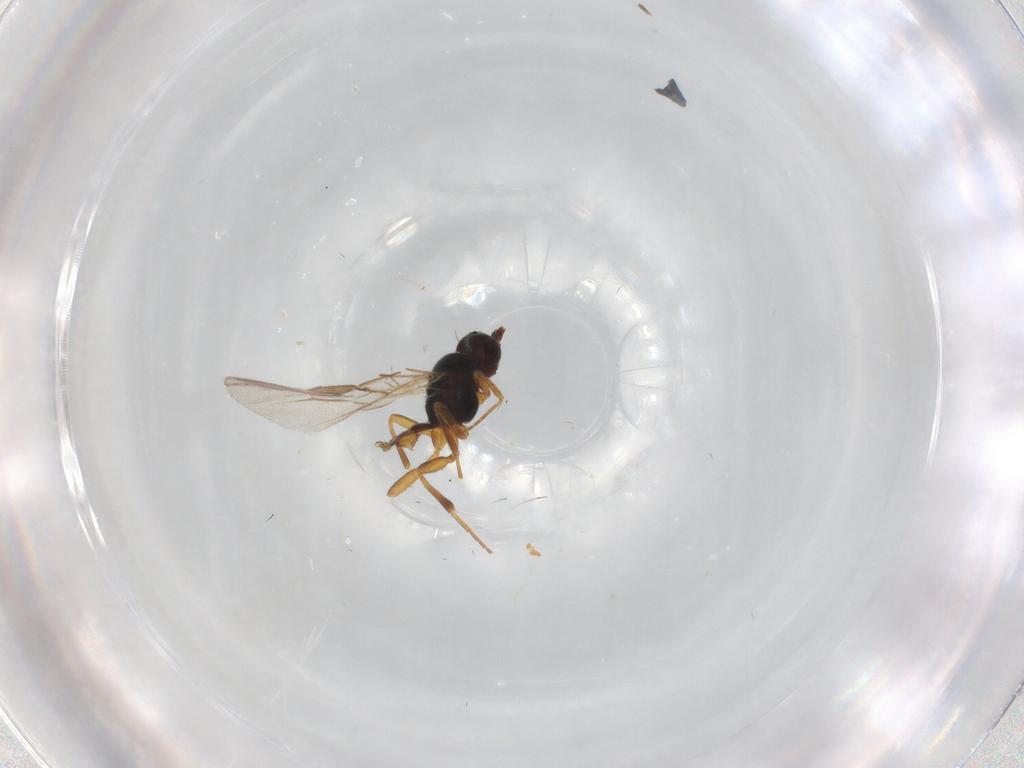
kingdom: Animalia
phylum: Arthropoda
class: Insecta
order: Hymenoptera
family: Braconidae
